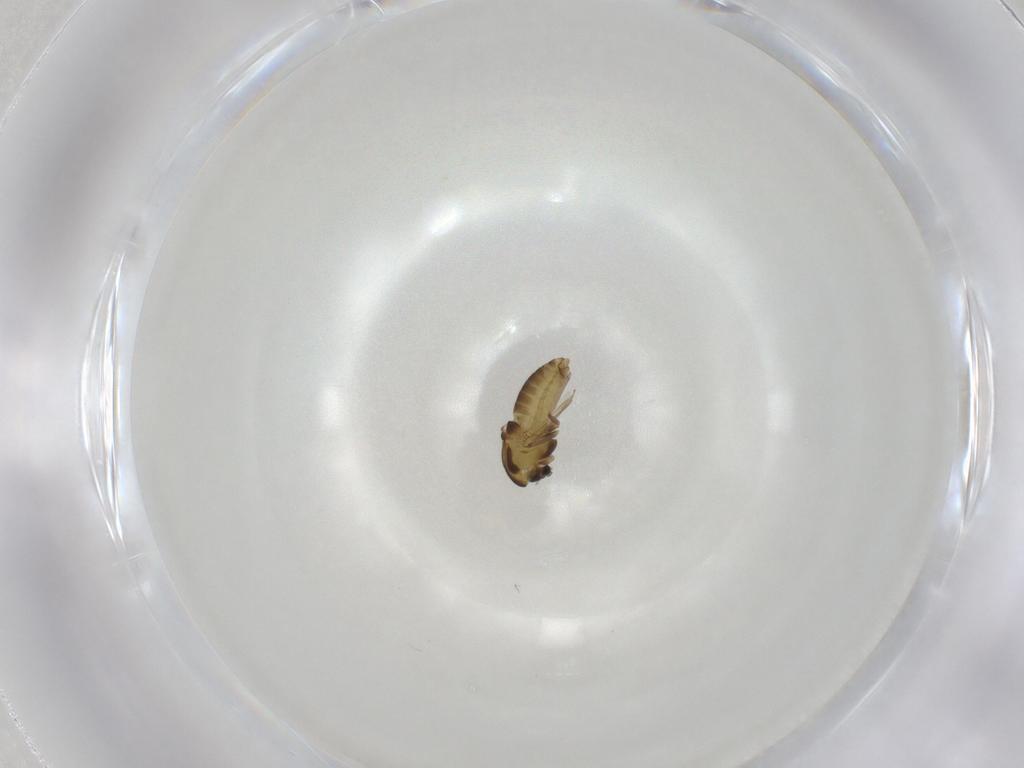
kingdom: Animalia
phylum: Arthropoda
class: Insecta
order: Diptera
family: Chironomidae
